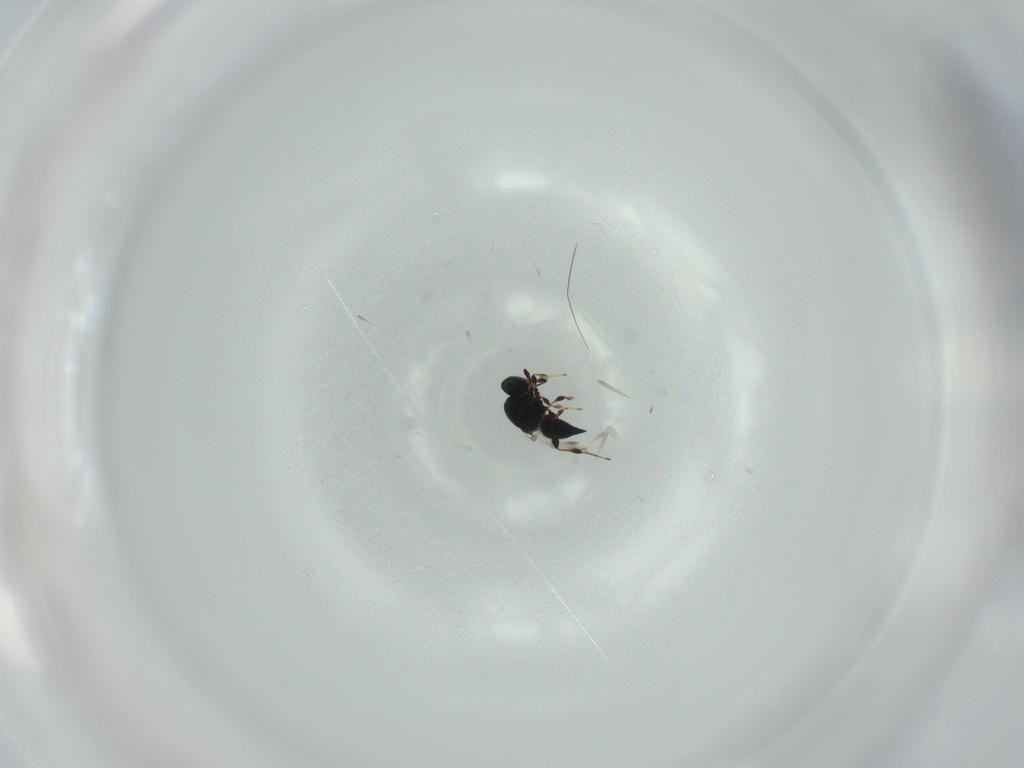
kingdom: Animalia
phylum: Arthropoda
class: Insecta
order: Hymenoptera
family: Platygastridae
